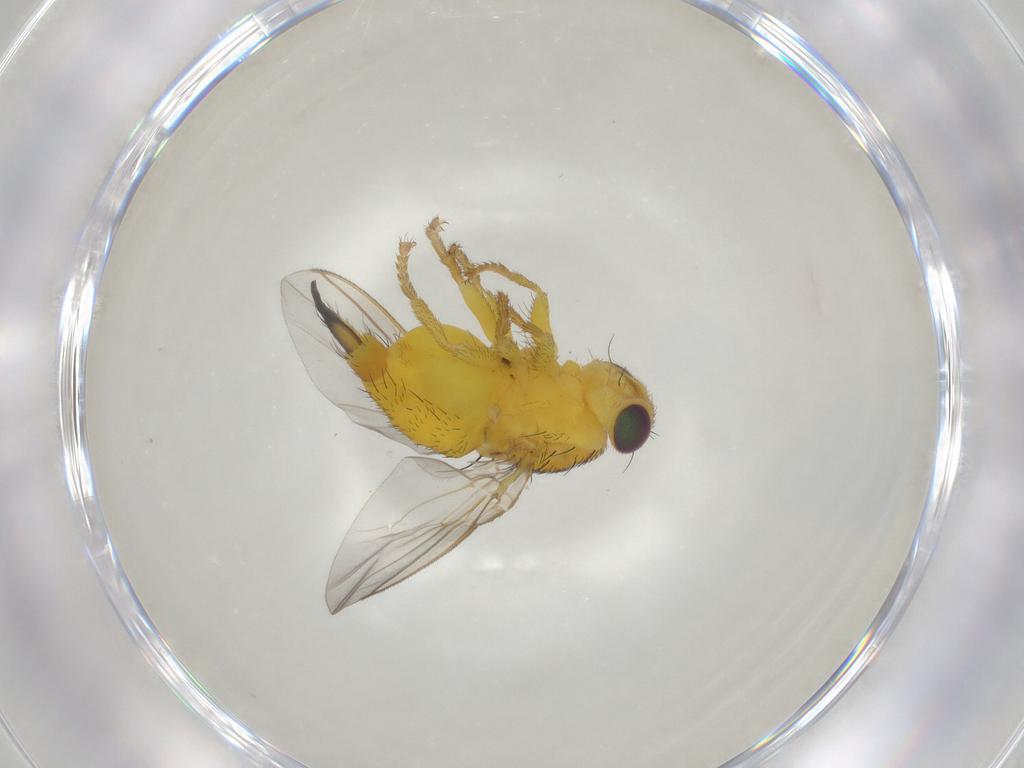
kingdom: Animalia
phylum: Arthropoda
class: Insecta
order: Diptera
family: Fergusoninidae
